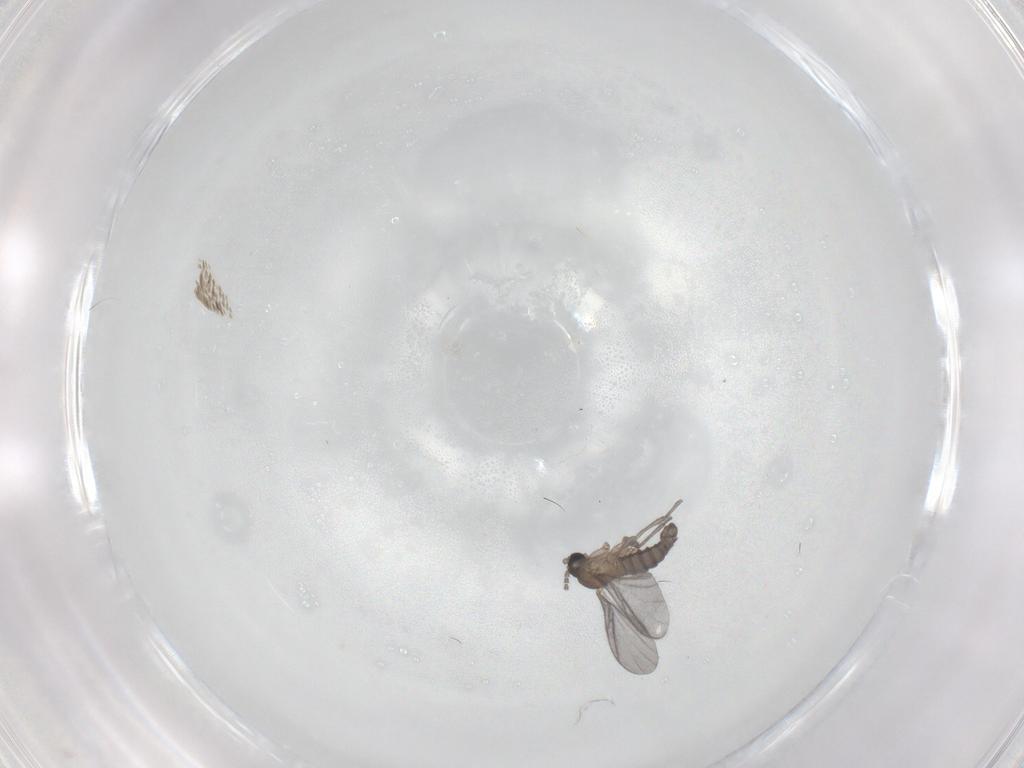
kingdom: Animalia
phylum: Arthropoda
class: Insecta
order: Diptera
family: Sciaridae
